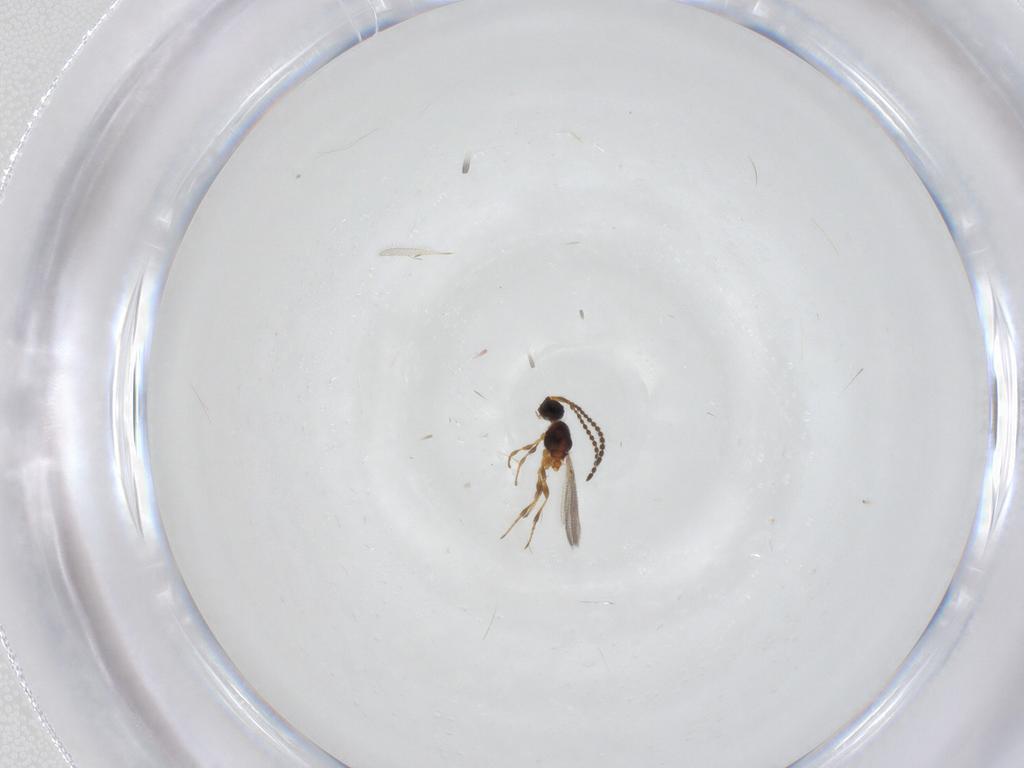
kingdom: Animalia
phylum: Arthropoda
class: Insecta
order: Hymenoptera
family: Diapriidae
